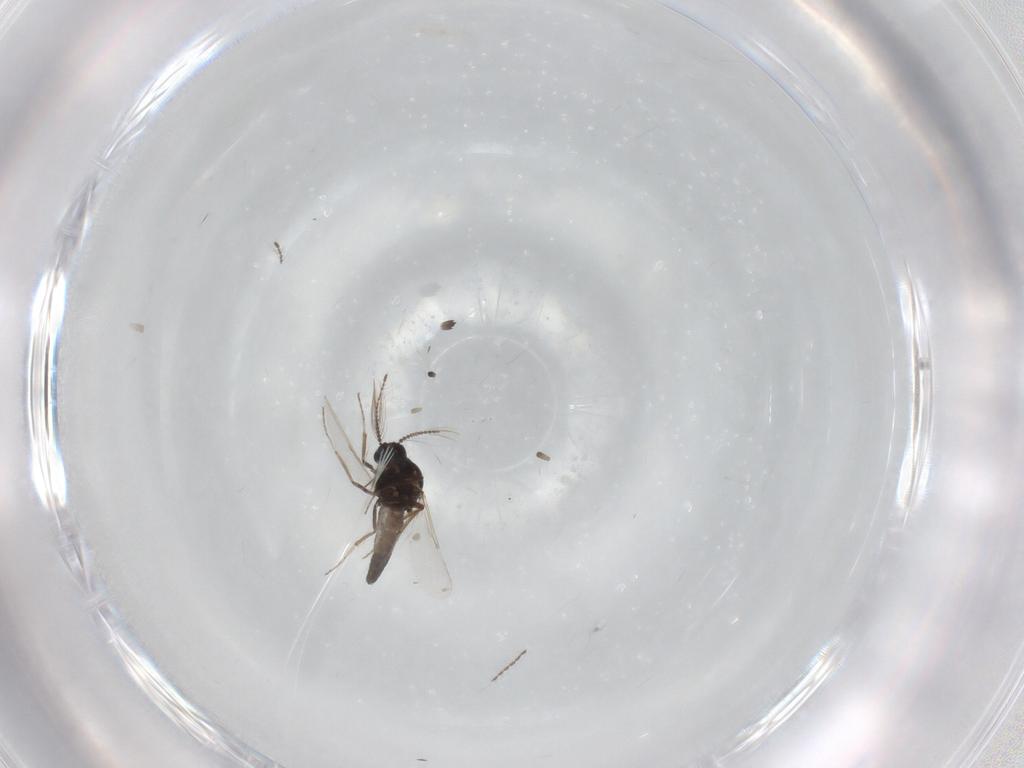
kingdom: Animalia
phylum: Arthropoda
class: Insecta
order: Diptera
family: Ceratopogonidae
